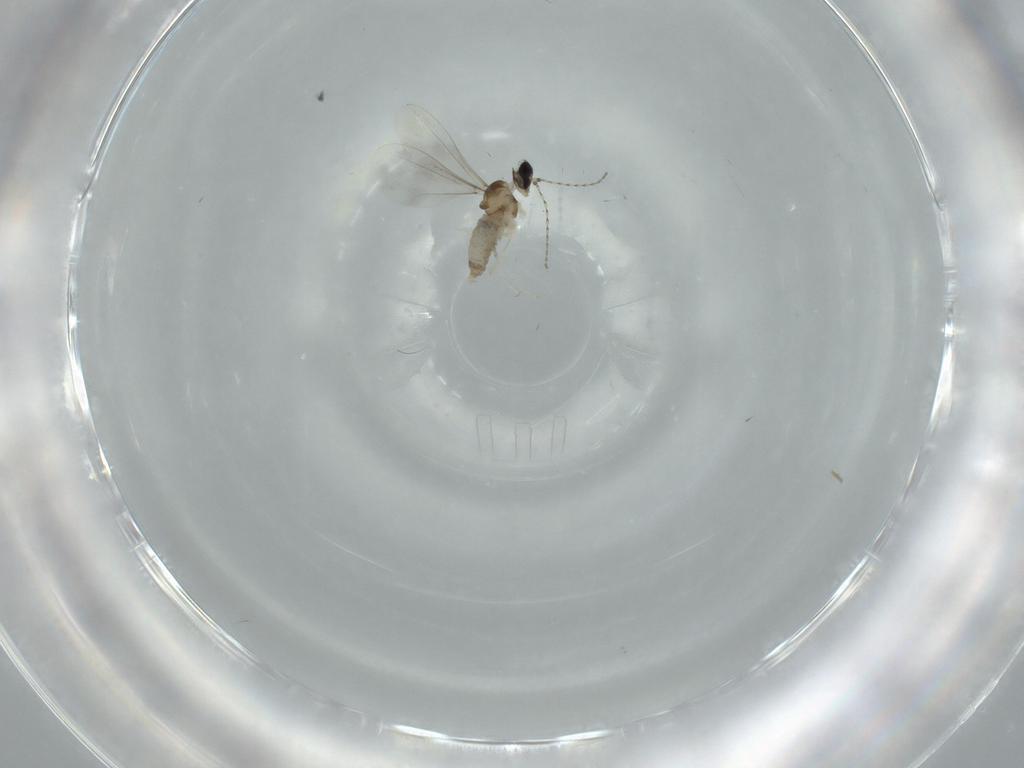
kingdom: Animalia
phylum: Arthropoda
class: Insecta
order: Diptera
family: Cecidomyiidae
